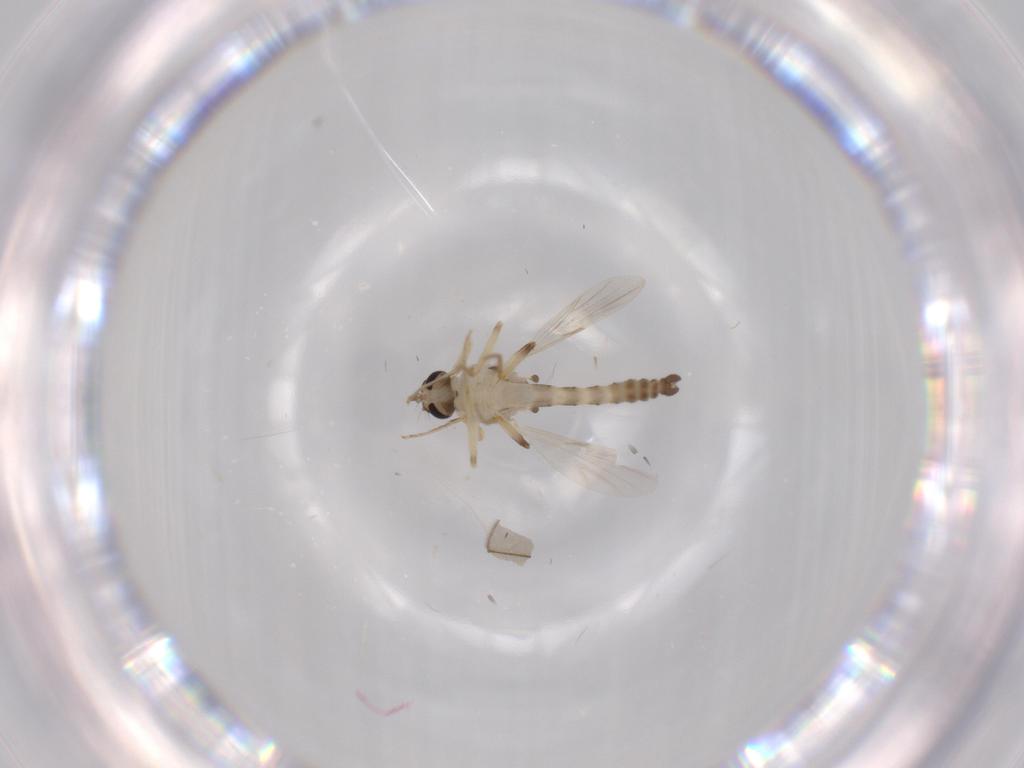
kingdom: Animalia
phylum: Arthropoda
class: Insecta
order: Diptera
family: Ceratopogonidae
